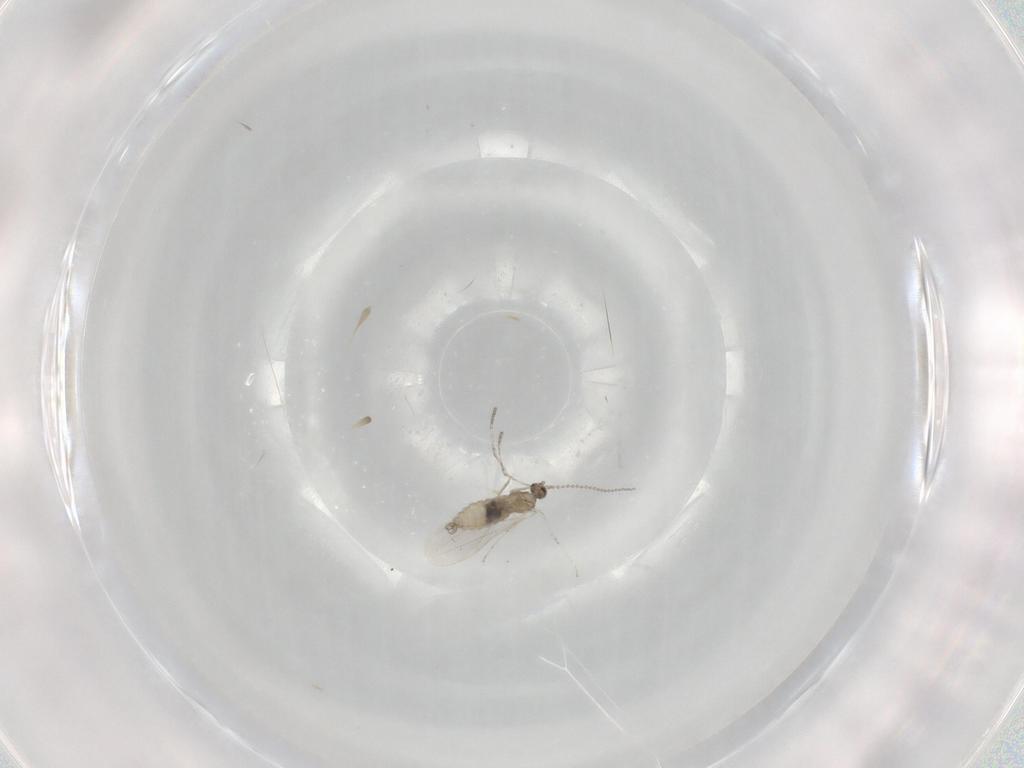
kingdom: Animalia
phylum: Arthropoda
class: Insecta
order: Diptera
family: Cecidomyiidae
